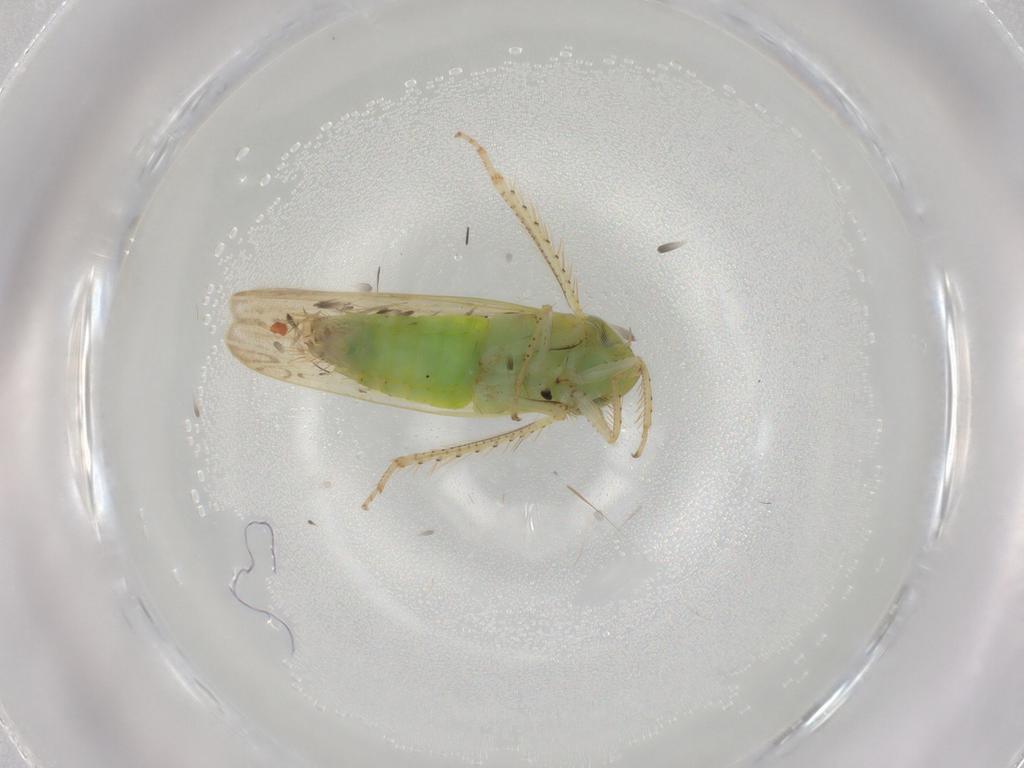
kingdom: Animalia
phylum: Arthropoda
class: Insecta
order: Hemiptera
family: Cicadellidae
